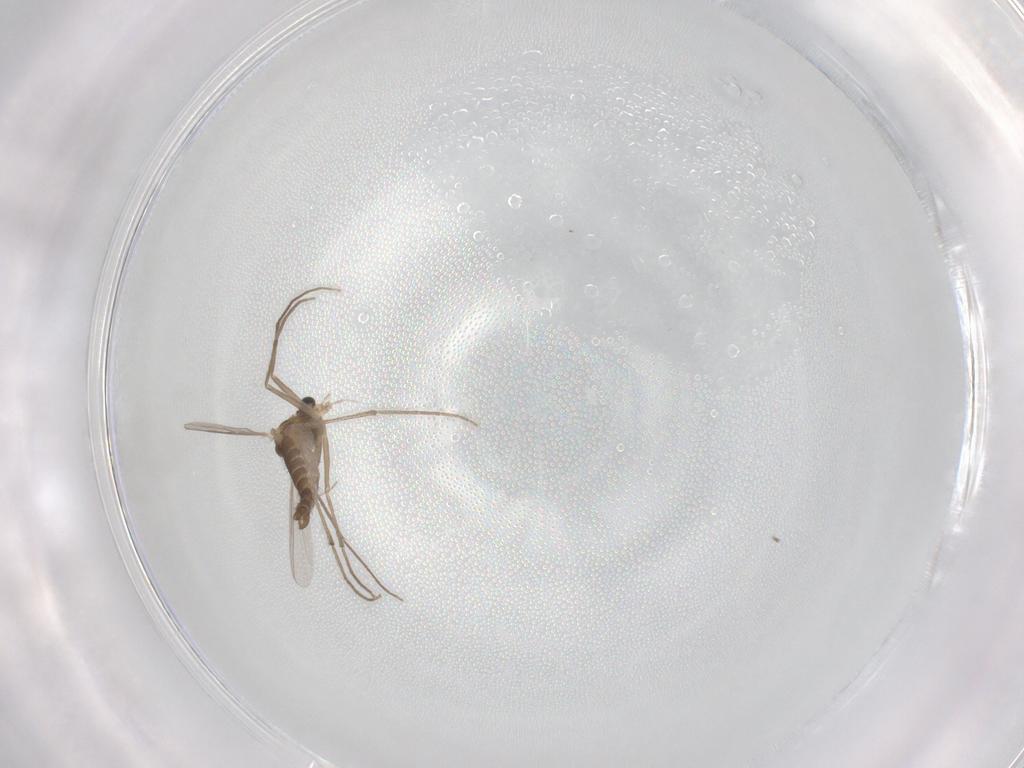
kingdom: Animalia
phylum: Arthropoda
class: Insecta
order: Diptera
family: Chironomidae
